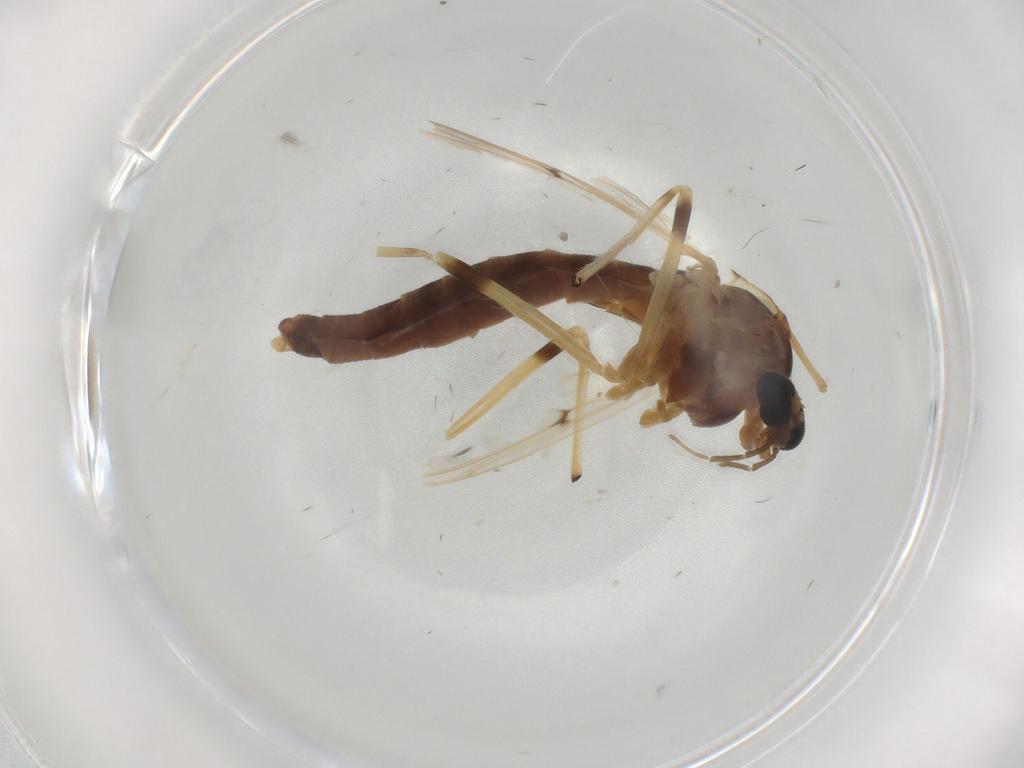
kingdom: Animalia
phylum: Arthropoda
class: Insecta
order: Diptera
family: Chironomidae
